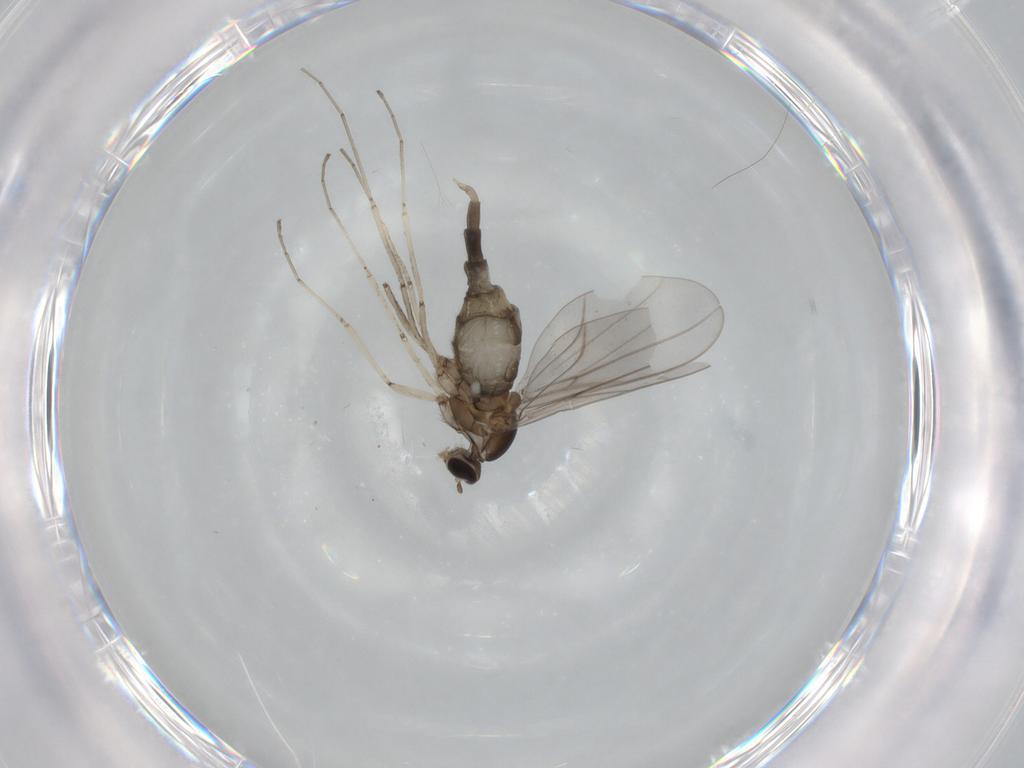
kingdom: Animalia
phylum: Arthropoda
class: Insecta
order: Diptera
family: Cecidomyiidae
